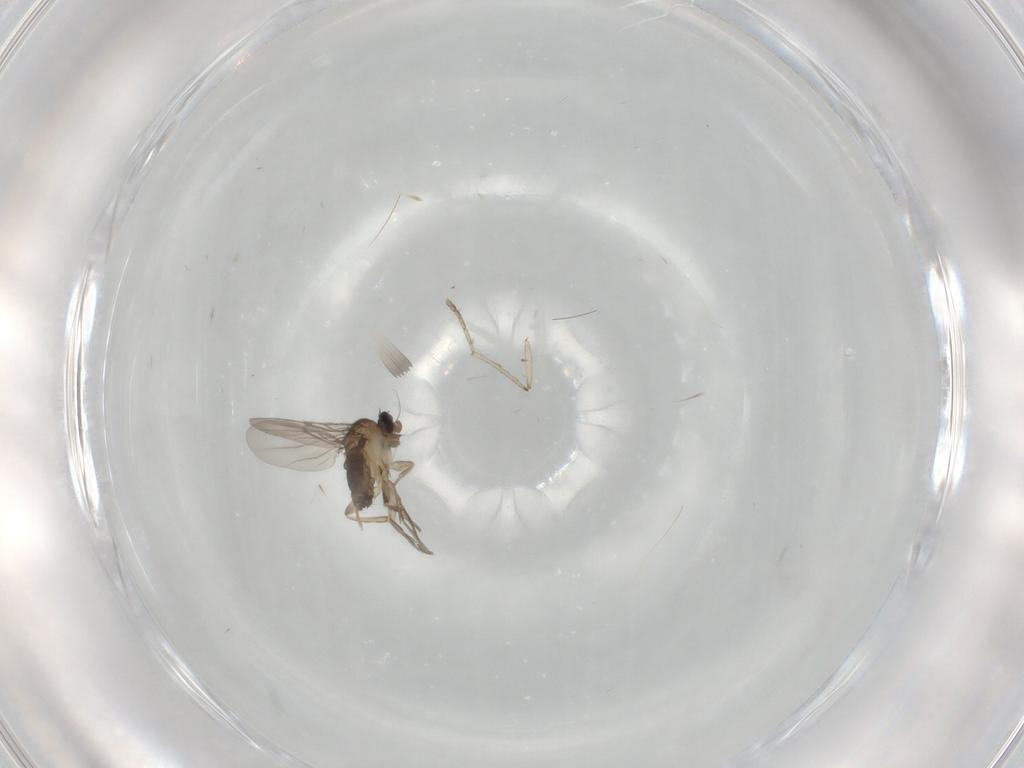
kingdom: Animalia
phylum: Arthropoda
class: Insecta
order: Diptera
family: Phoridae
